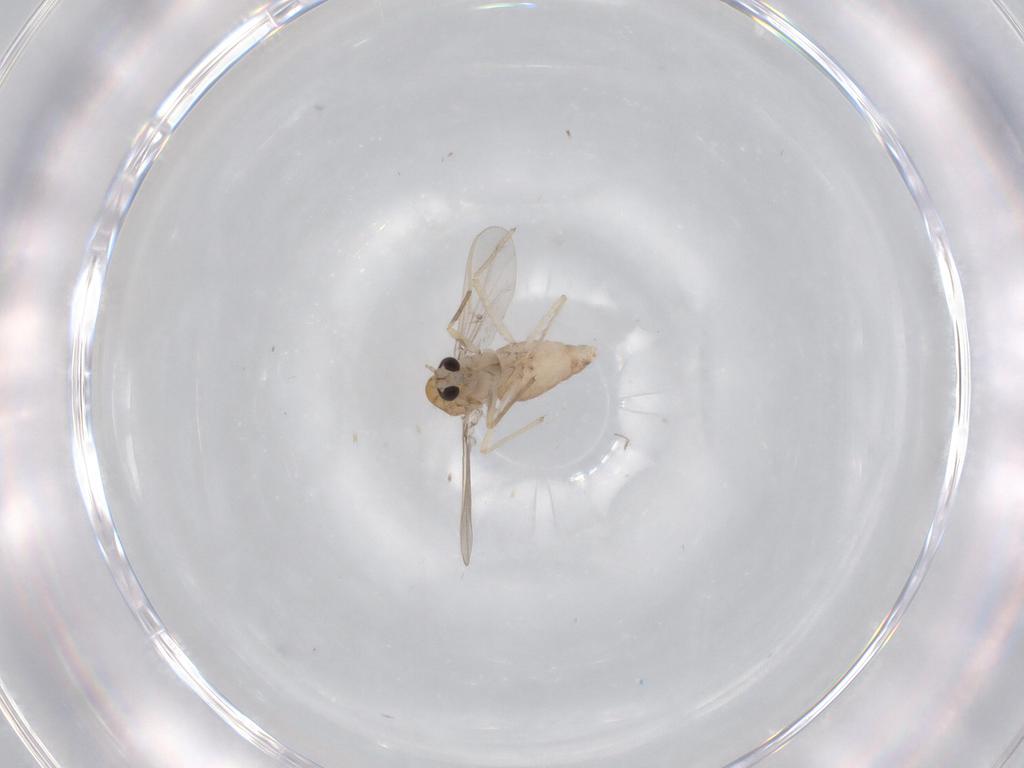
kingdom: Animalia
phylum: Arthropoda
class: Insecta
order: Diptera
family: Chironomidae
